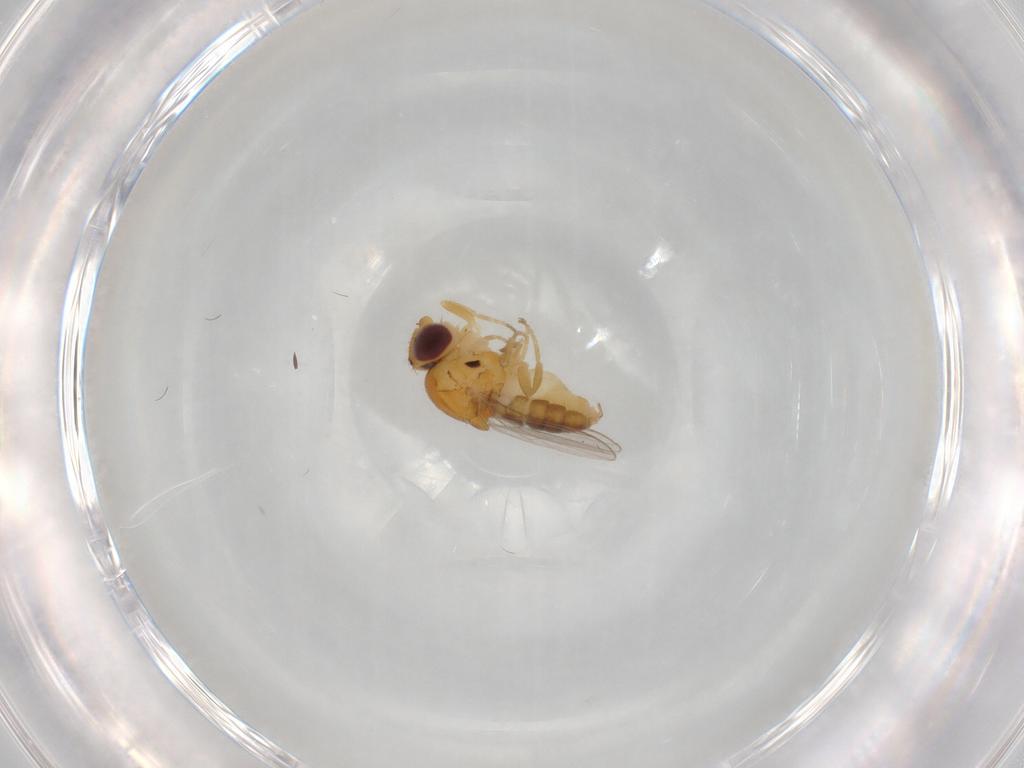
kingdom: Animalia
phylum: Arthropoda
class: Insecta
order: Diptera
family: Chloropidae
